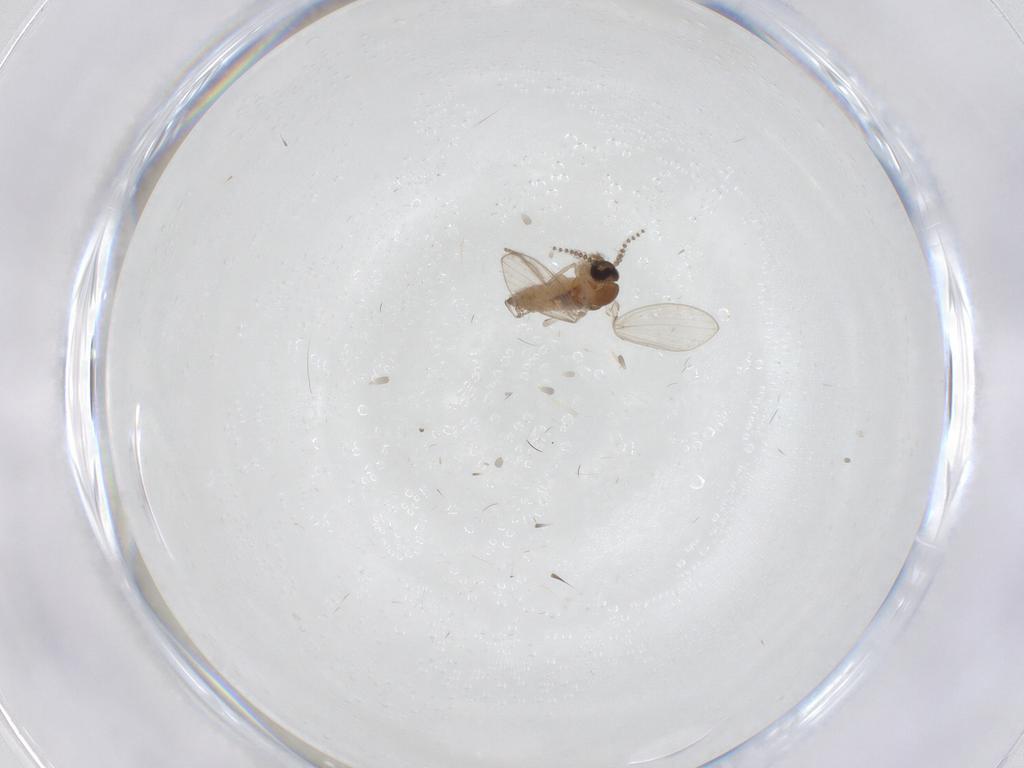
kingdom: Animalia
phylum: Arthropoda
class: Insecta
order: Diptera
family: Psychodidae
